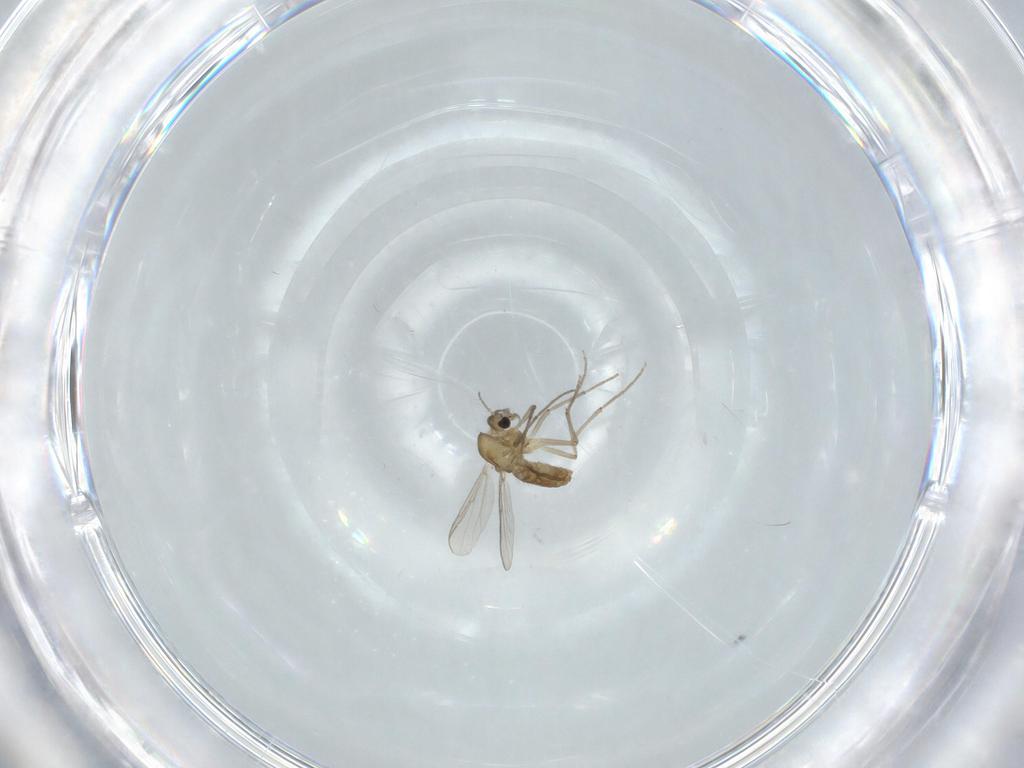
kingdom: Animalia
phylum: Arthropoda
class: Insecta
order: Diptera
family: Chironomidae
